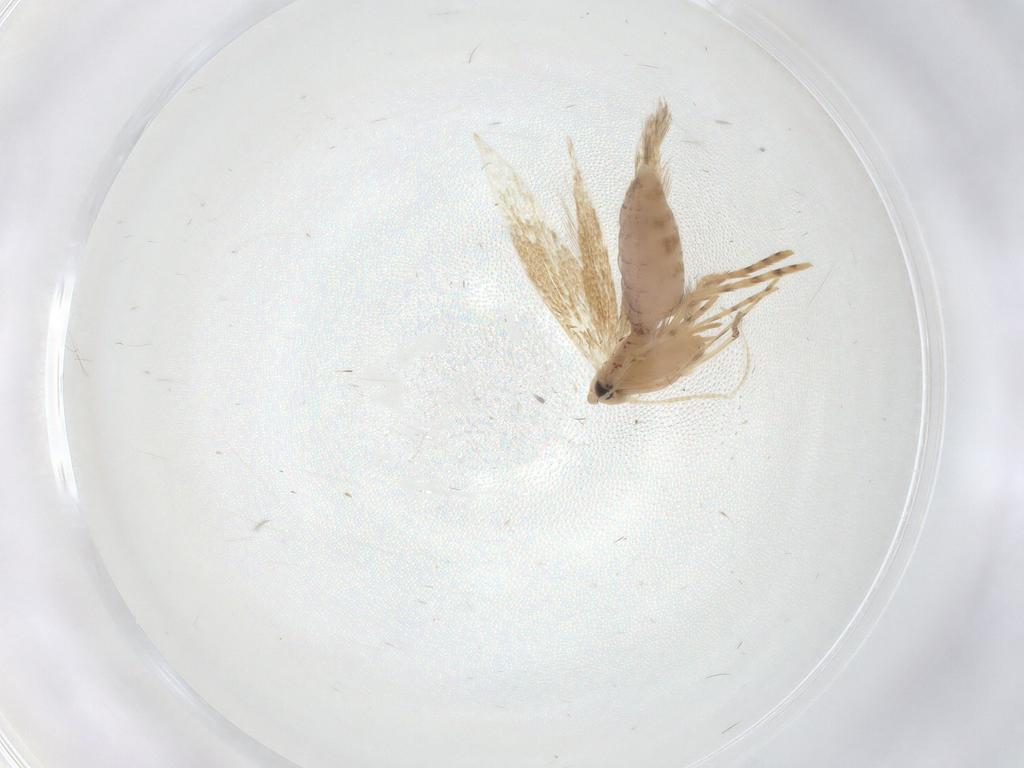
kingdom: Animalia
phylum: Arthropoda
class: Insecta
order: Lepidoptera
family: Lyonetiidae
